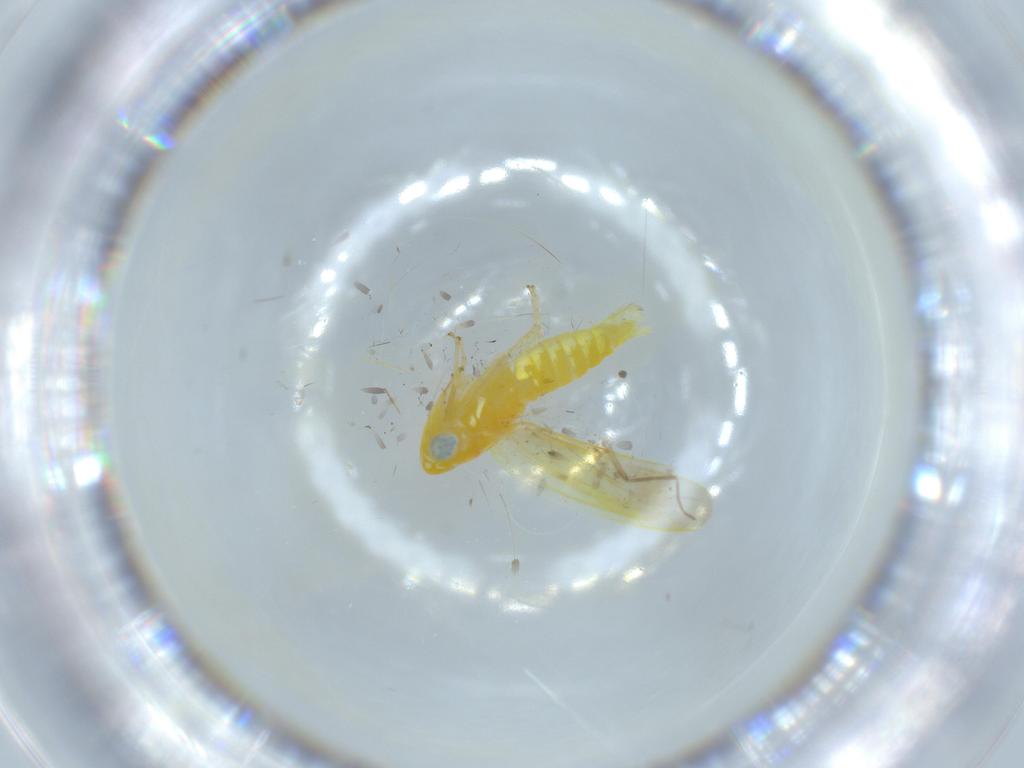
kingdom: Animalia
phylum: Arthropoda
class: Insecta
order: Hemiptera
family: Cicadellidae
